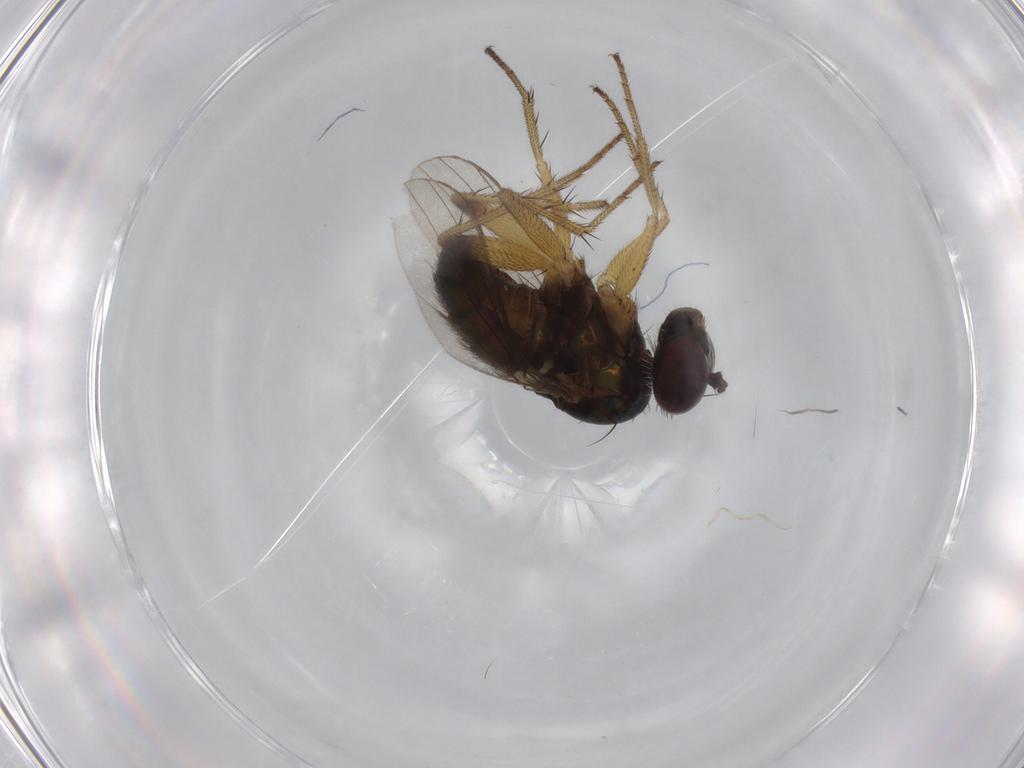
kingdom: Animalia
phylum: Arthropoda
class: Insecta
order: Diptera
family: Dolichopodidae
